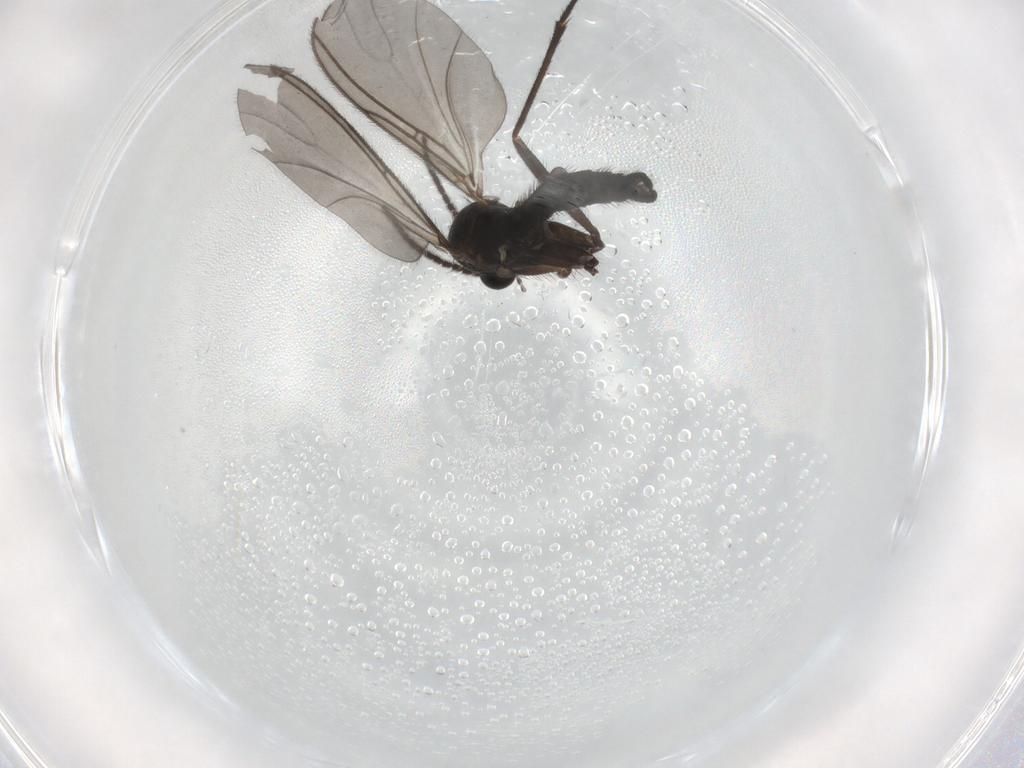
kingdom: Animalia
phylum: Arthropoda
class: Insecta
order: Diptera
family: Sciaridae
